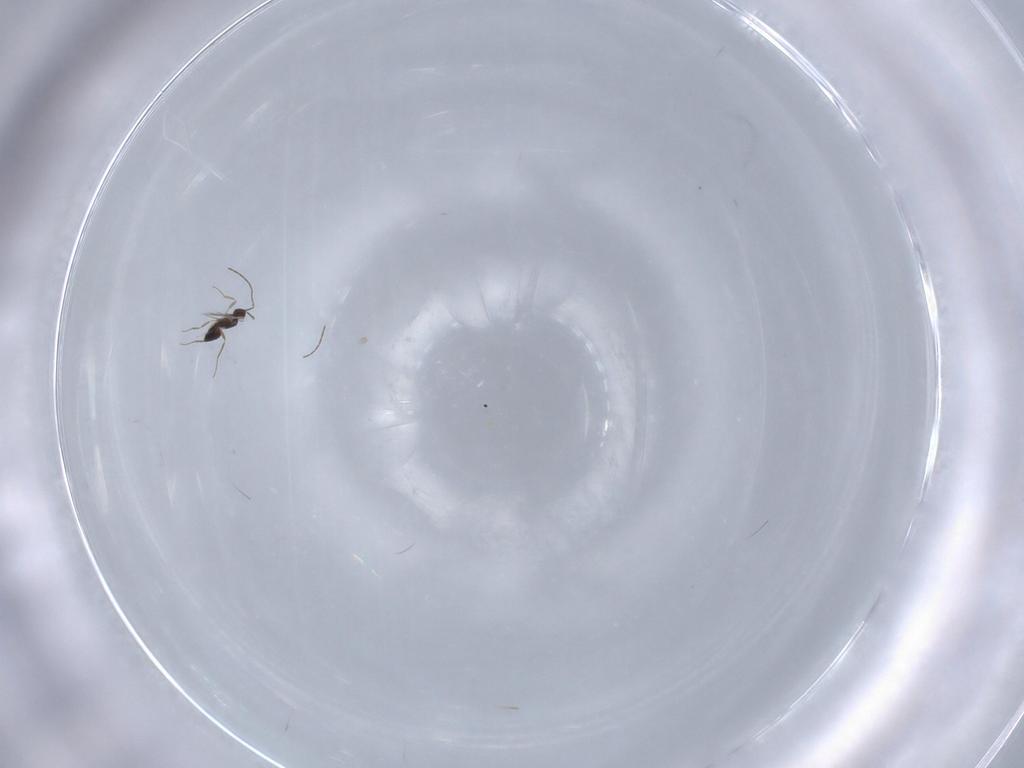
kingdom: Animalia
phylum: Arthropoda
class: Insecta
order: Hymenoptera
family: Mymaridae
